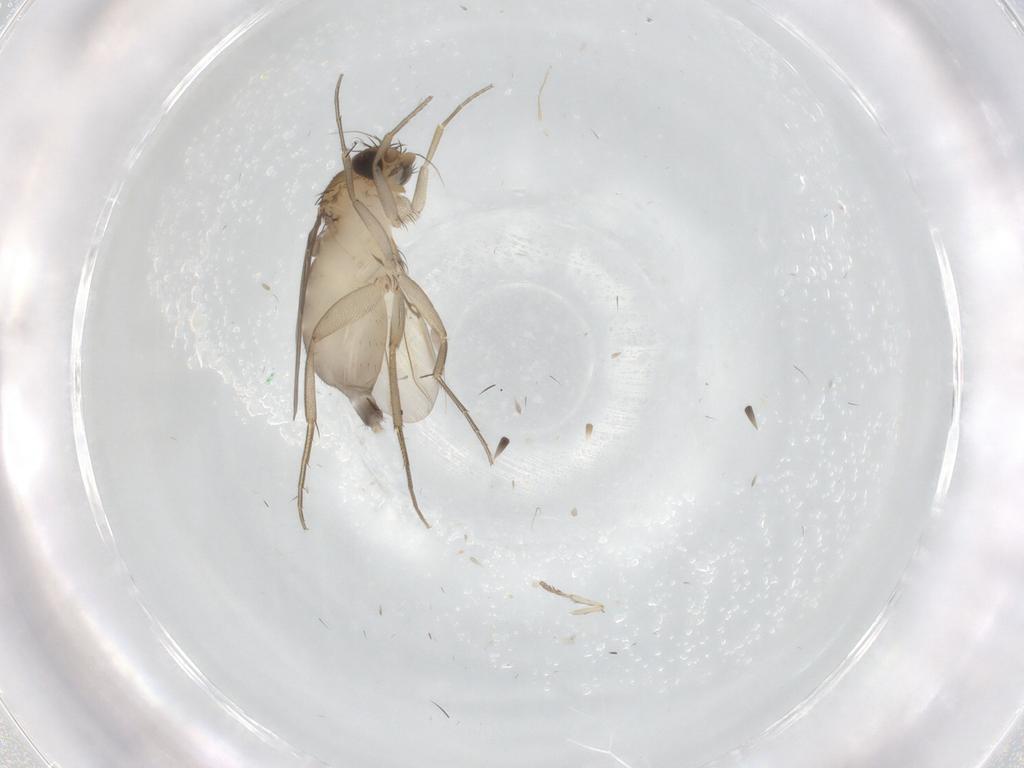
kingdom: Animalia
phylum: Arthropoda
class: Insecta
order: Diptera
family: Phoridae
